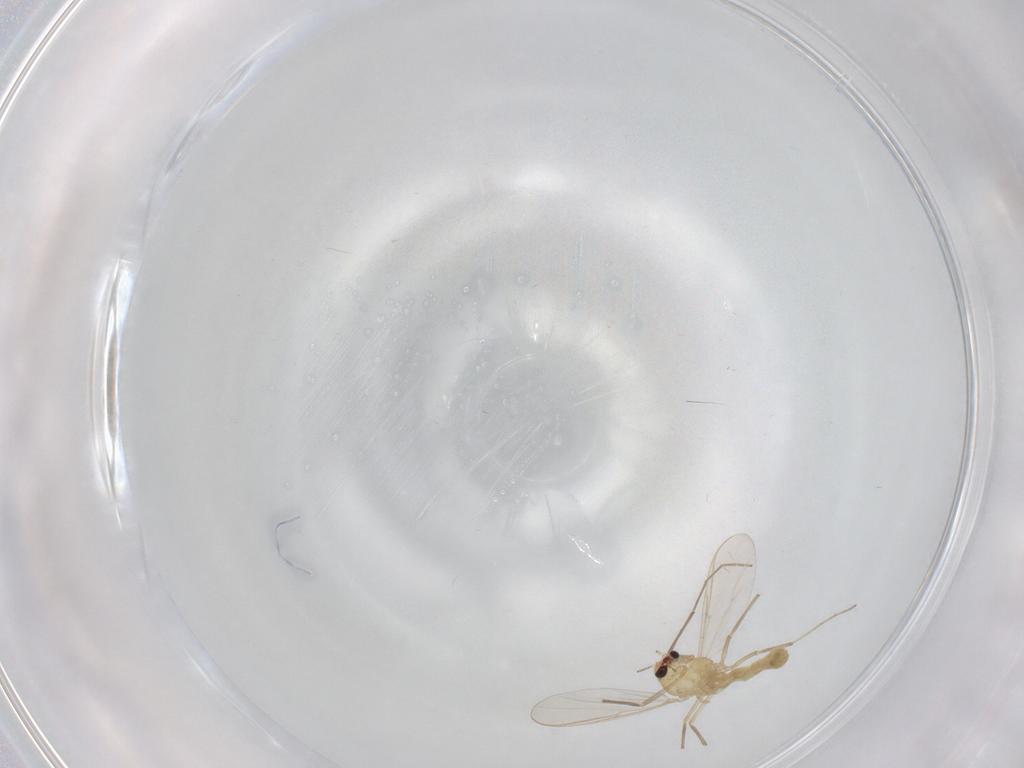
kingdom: Animalia
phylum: Arthropoda
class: Insecta
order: Diptera
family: Chironomidae
